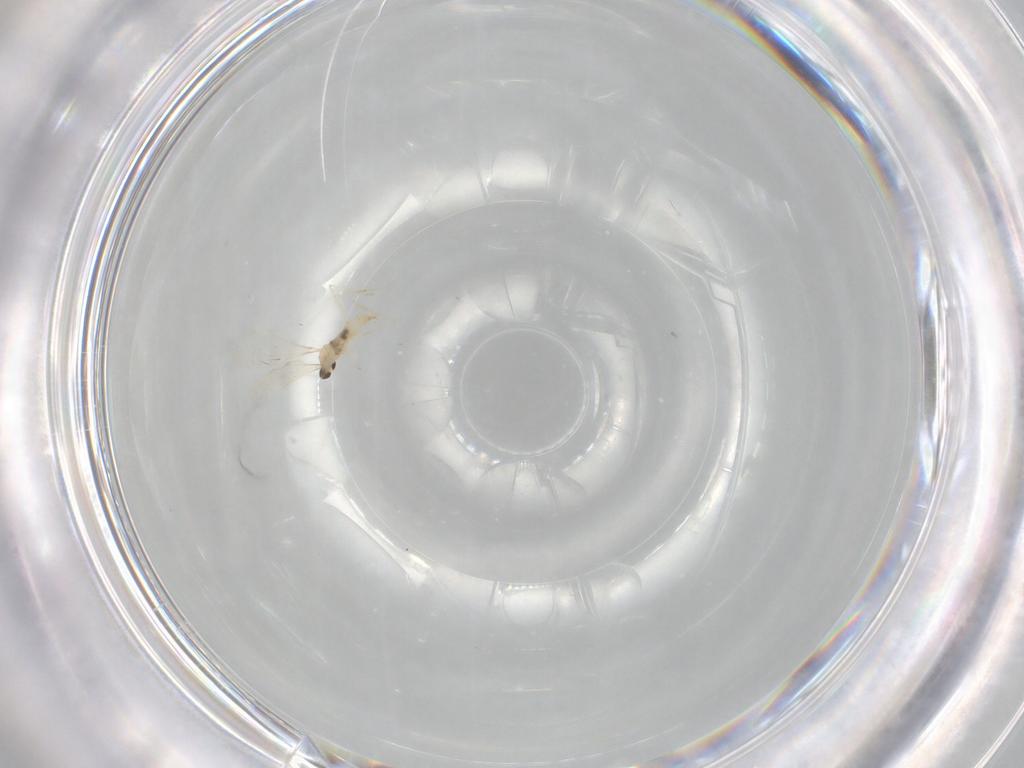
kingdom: Animalia
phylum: Arthropoda
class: Insecta
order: Diptera
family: Cecidomyiidae
